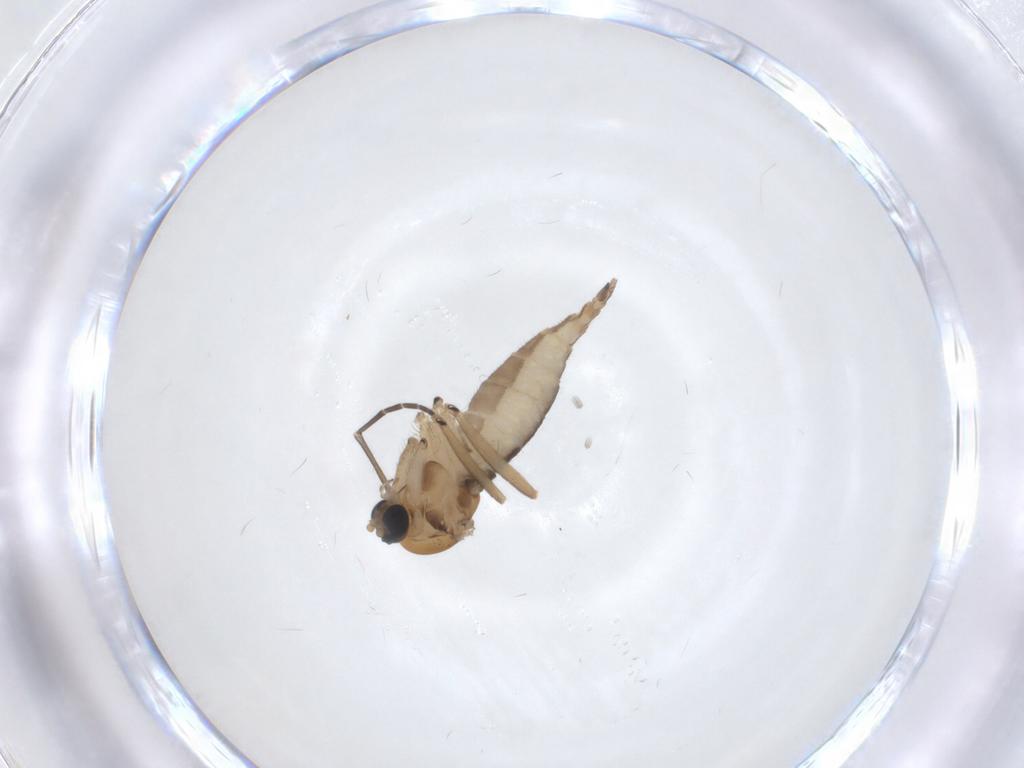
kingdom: Animalia
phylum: Arthropoda
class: Insecta
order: Diptera
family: Sciaridae
